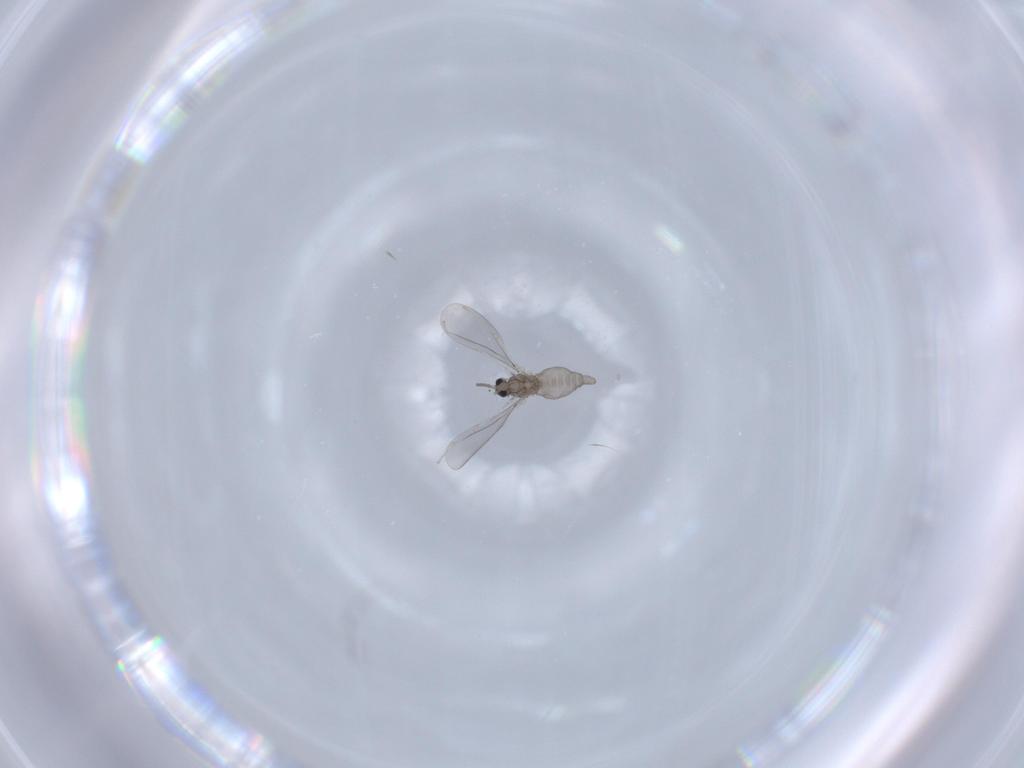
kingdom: Animalia
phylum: Arthropoda
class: Insecta
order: Diptera
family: Cecidomyiidae
